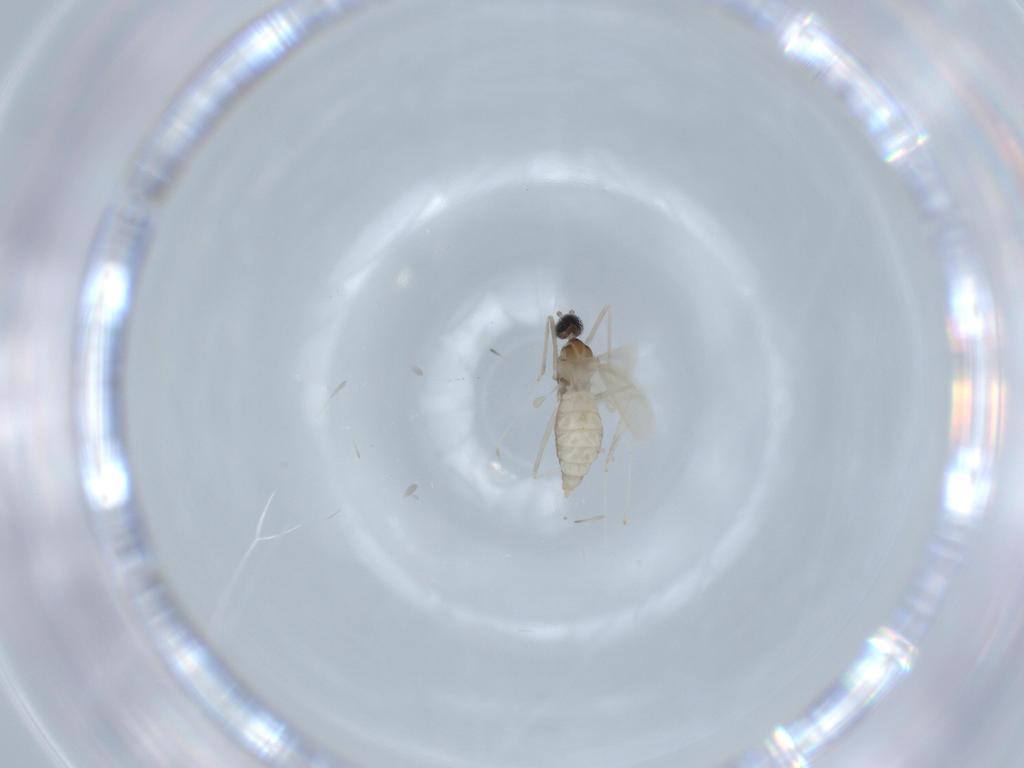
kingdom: Animalia
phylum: Arthropoda
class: Insecta
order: Diptera
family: Cecidomyiidae
